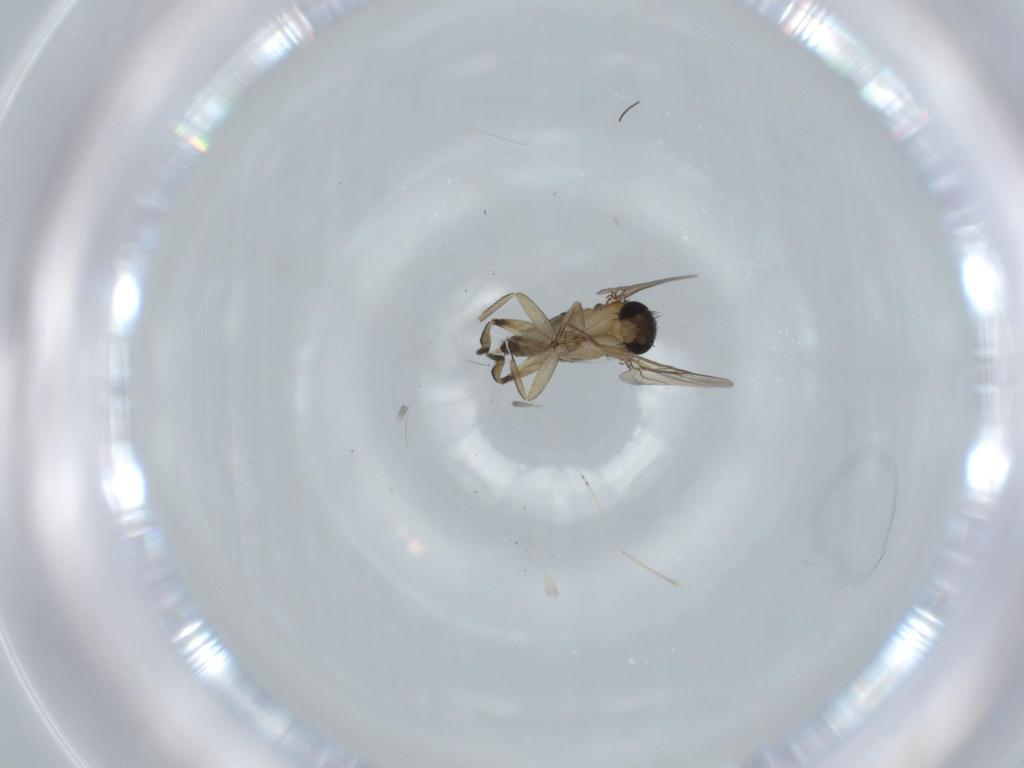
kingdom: Animalia
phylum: Arthropoda
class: Insecta
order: Diptera
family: Phoridae
